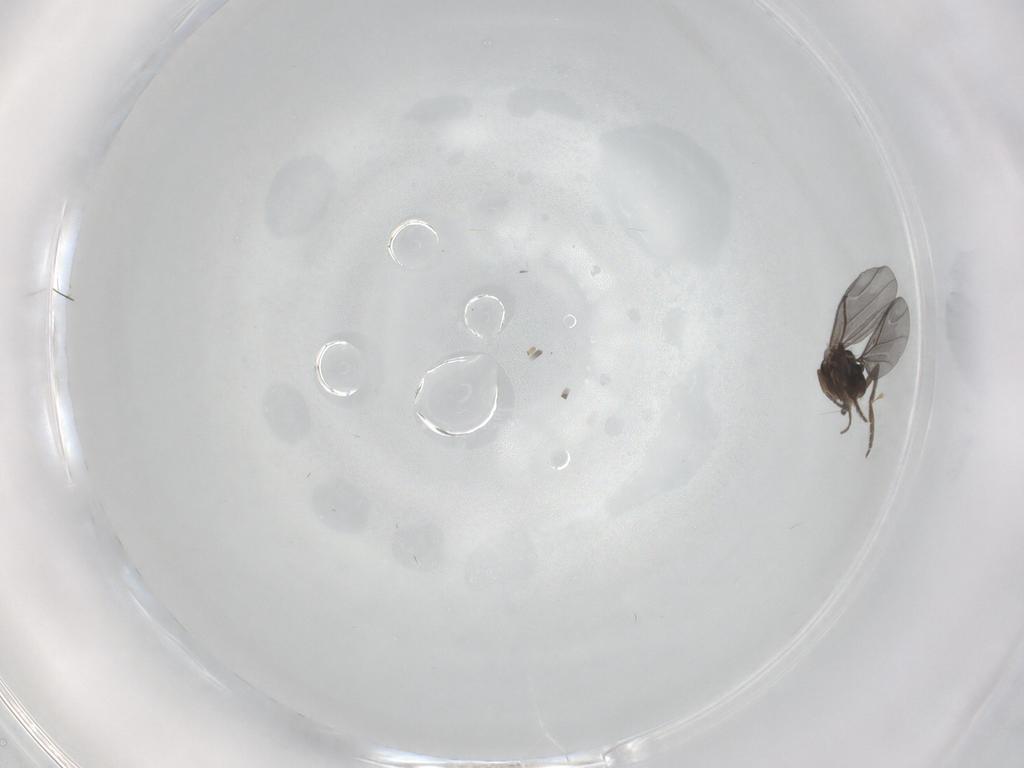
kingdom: Animalia
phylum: Arthropoda
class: Insecta
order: Diptera
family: Phoridae
